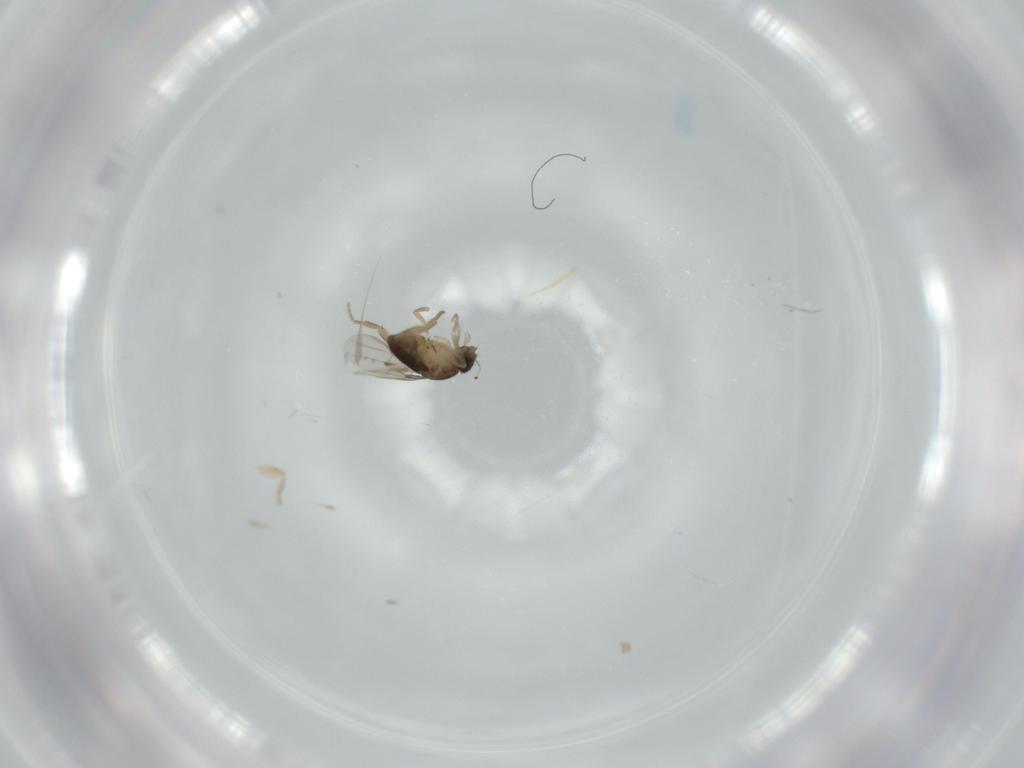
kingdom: Animalia
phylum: Arthropoda
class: Insecta
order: Diptera
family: Phoridae
